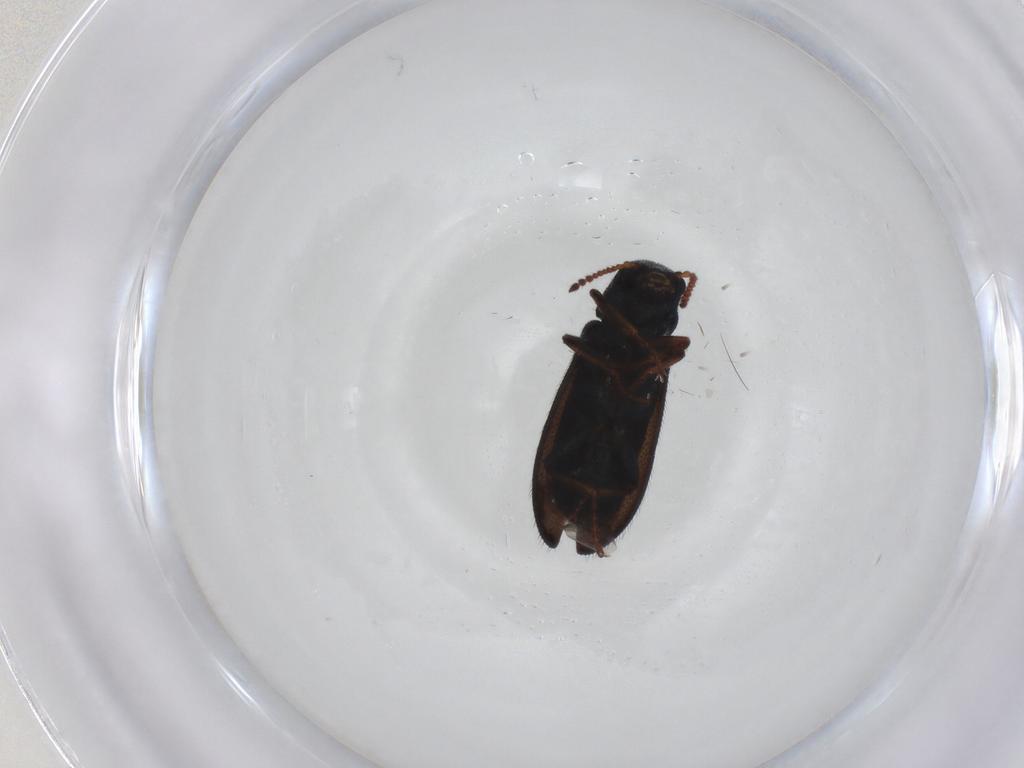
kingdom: Animalia
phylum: Arthropoda
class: Insecta
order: Coleoptera
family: Melyridae
